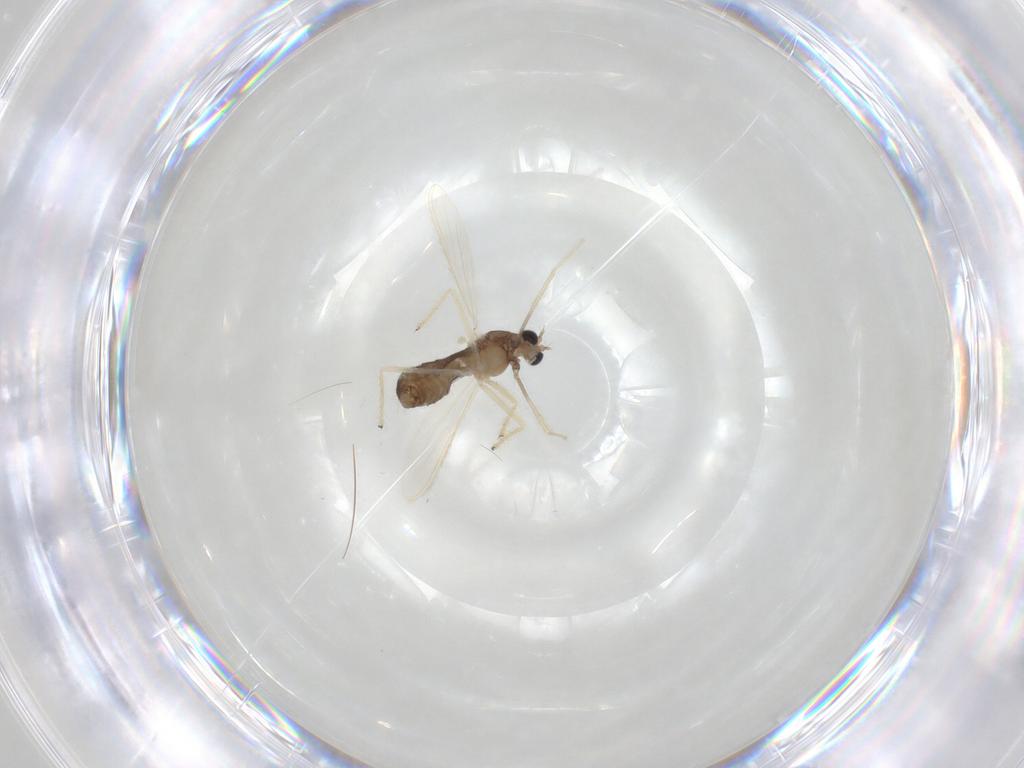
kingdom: Animalia
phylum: Arthropoda
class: Insecta
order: Diptera
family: Chironomidae
